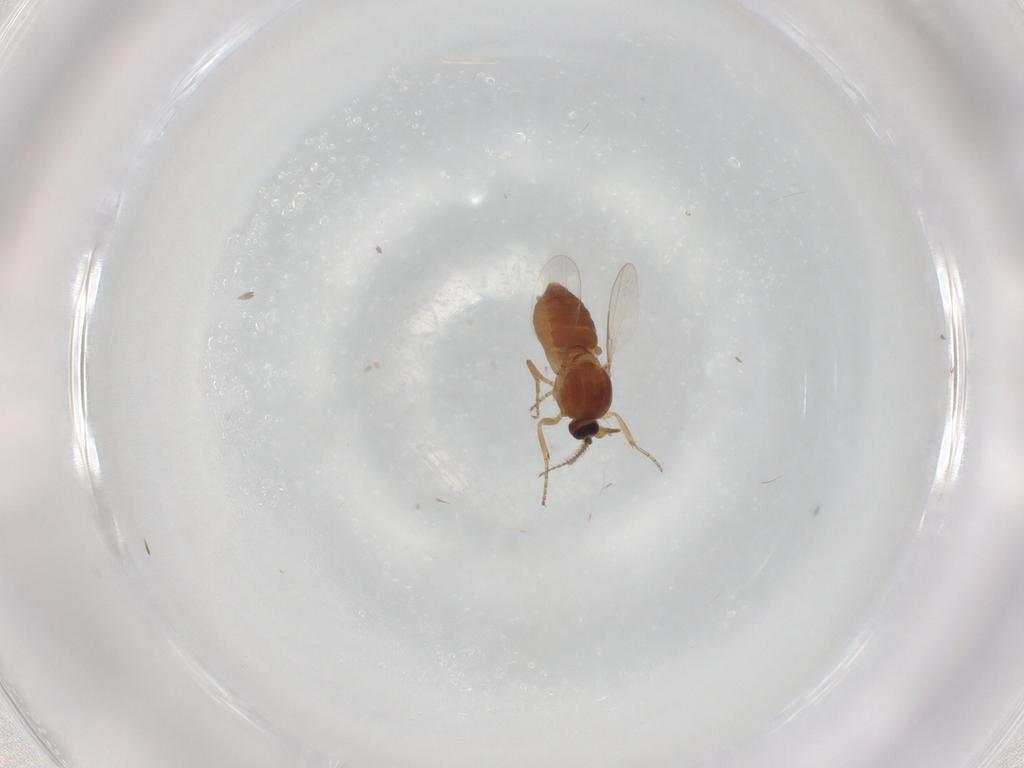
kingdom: Animalia
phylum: Arthropoda
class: Insecta
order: Diptera
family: Ceratopogonidae
